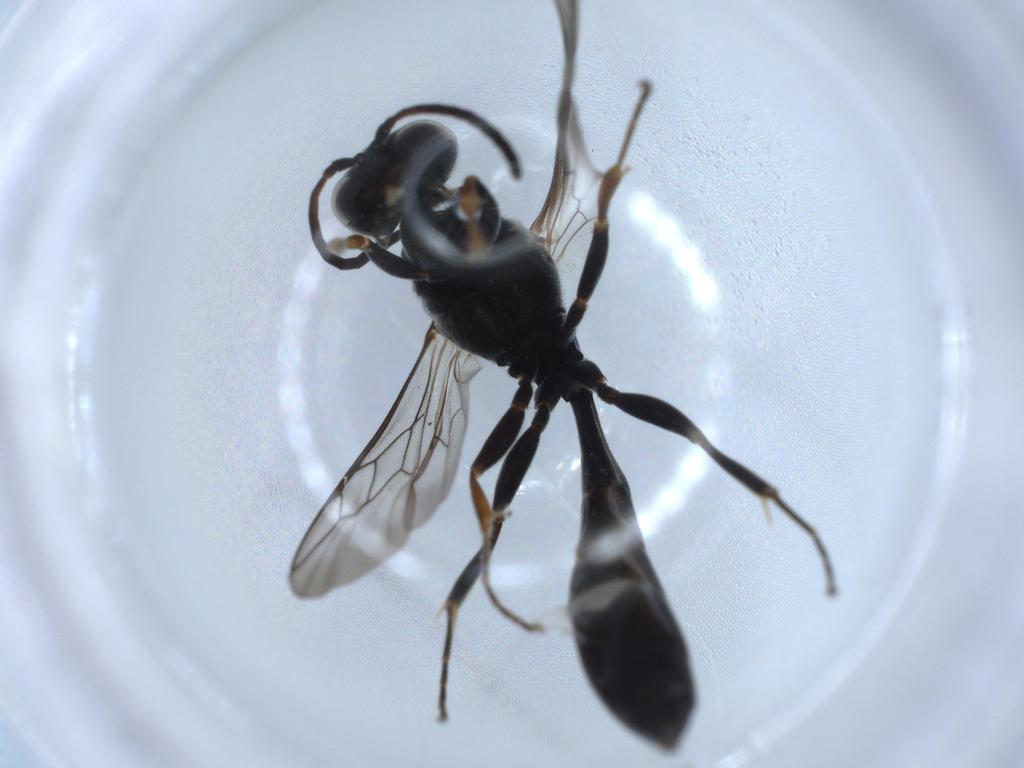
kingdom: Animalia
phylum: Arthropoda
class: Insecta
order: Hymenoptera
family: Crabronidae
